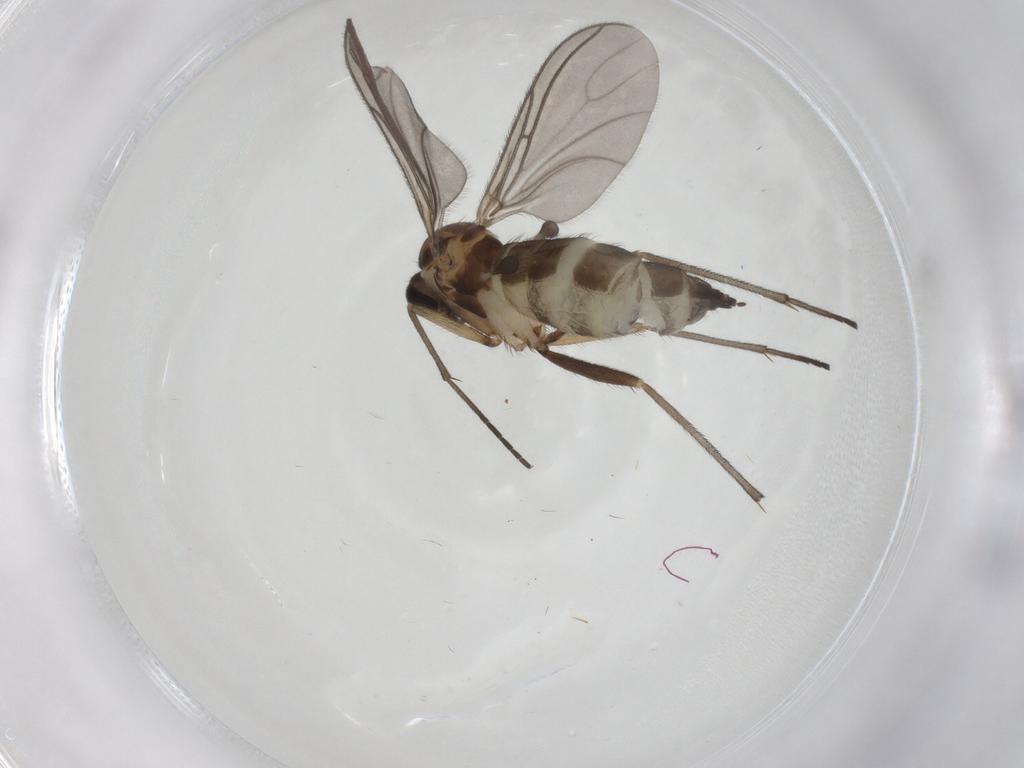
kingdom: Animalia
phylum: Arthropoda
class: Insecta
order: Diptera
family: Sciaridae
